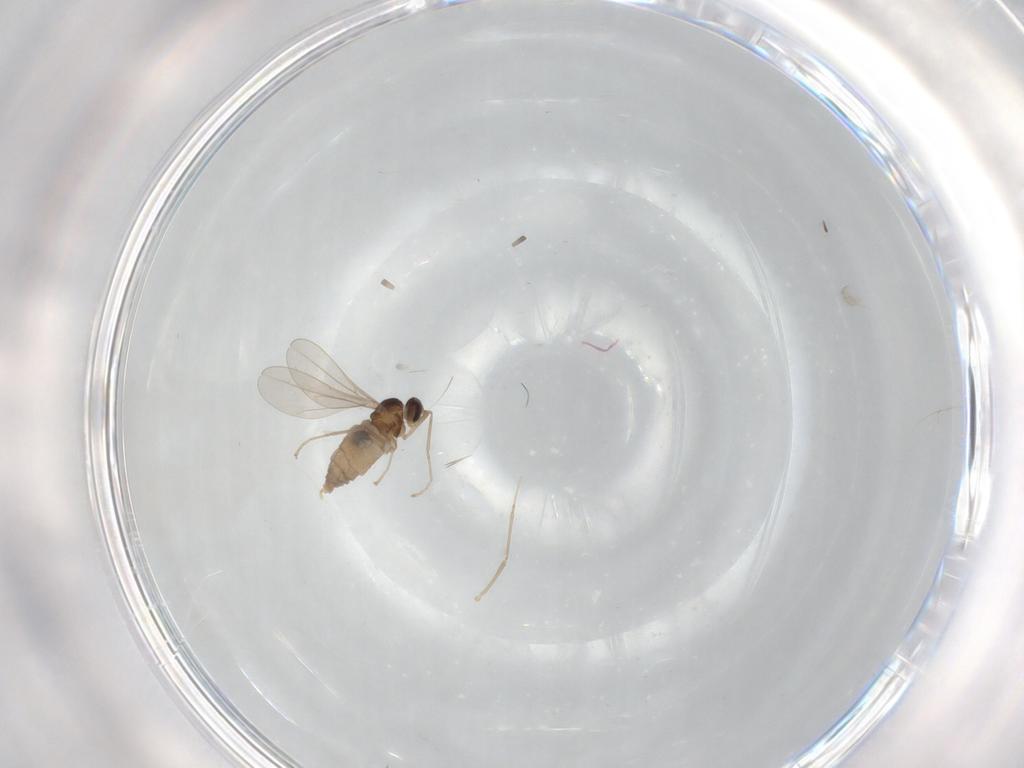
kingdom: Animalia
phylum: Arthropoda
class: Insecta
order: Diptera
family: Cecidomyiidae
